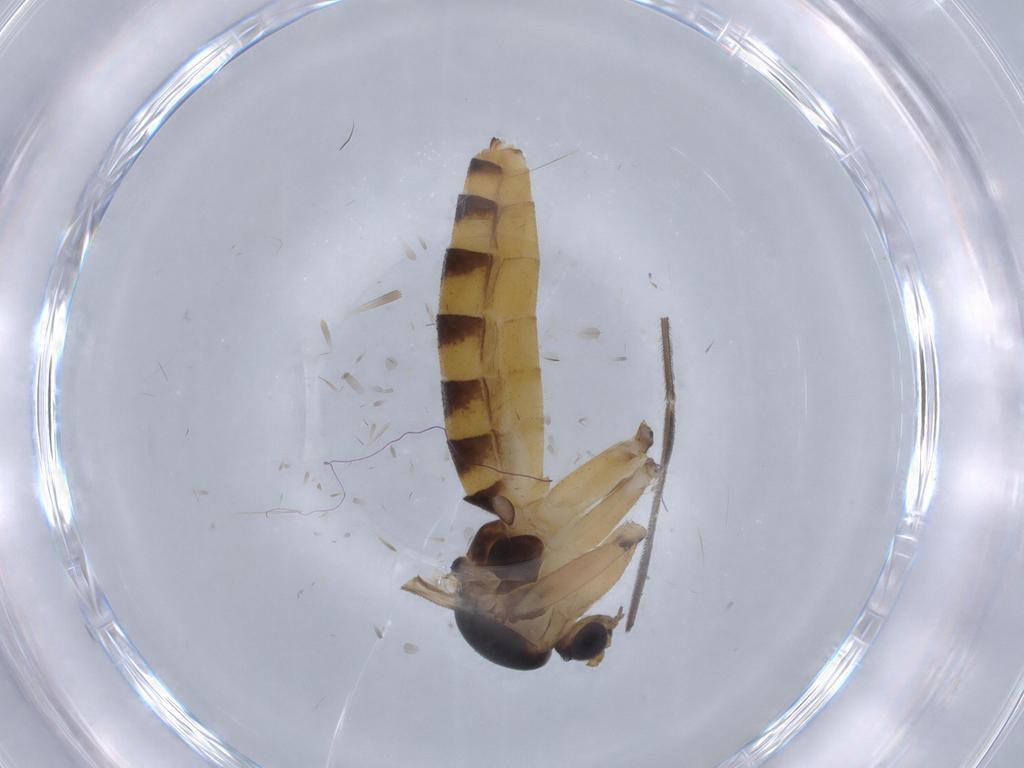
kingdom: Animalia
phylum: Arthropoda
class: Insecta
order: Diptera
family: Mycetophilidae
